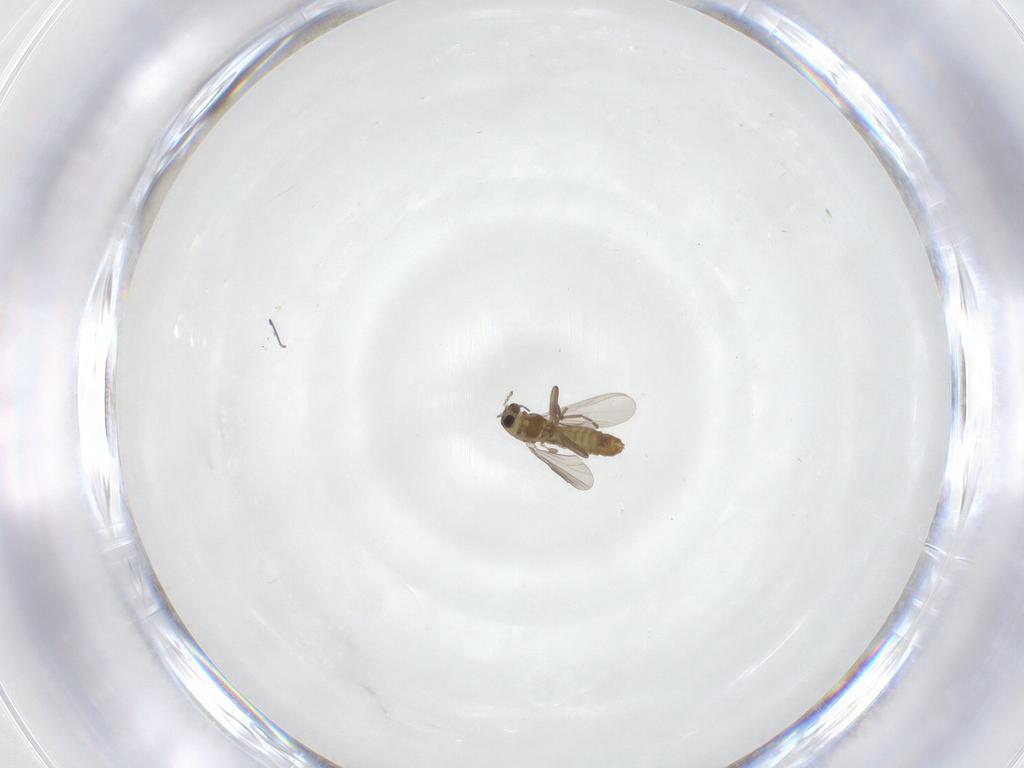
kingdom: Animalia
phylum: Arthropoda
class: Insecta
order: Diptera
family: Chironomidae
